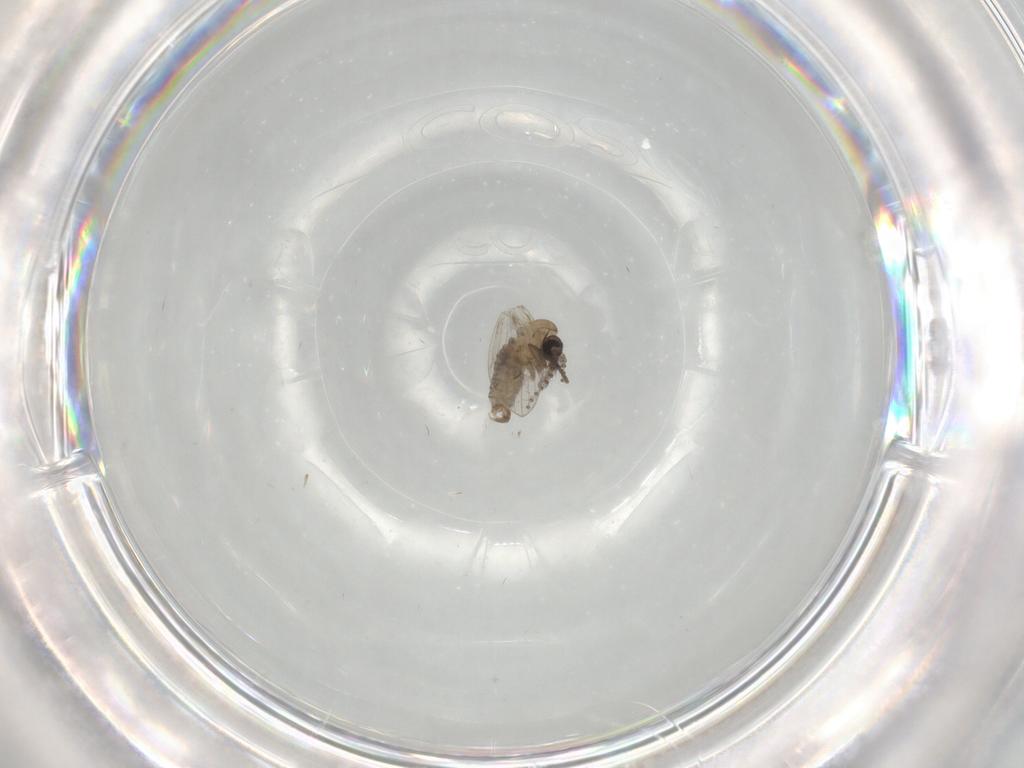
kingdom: Animalia
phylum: Arthropoda
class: Insecta
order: Diptera
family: Psychodidae
